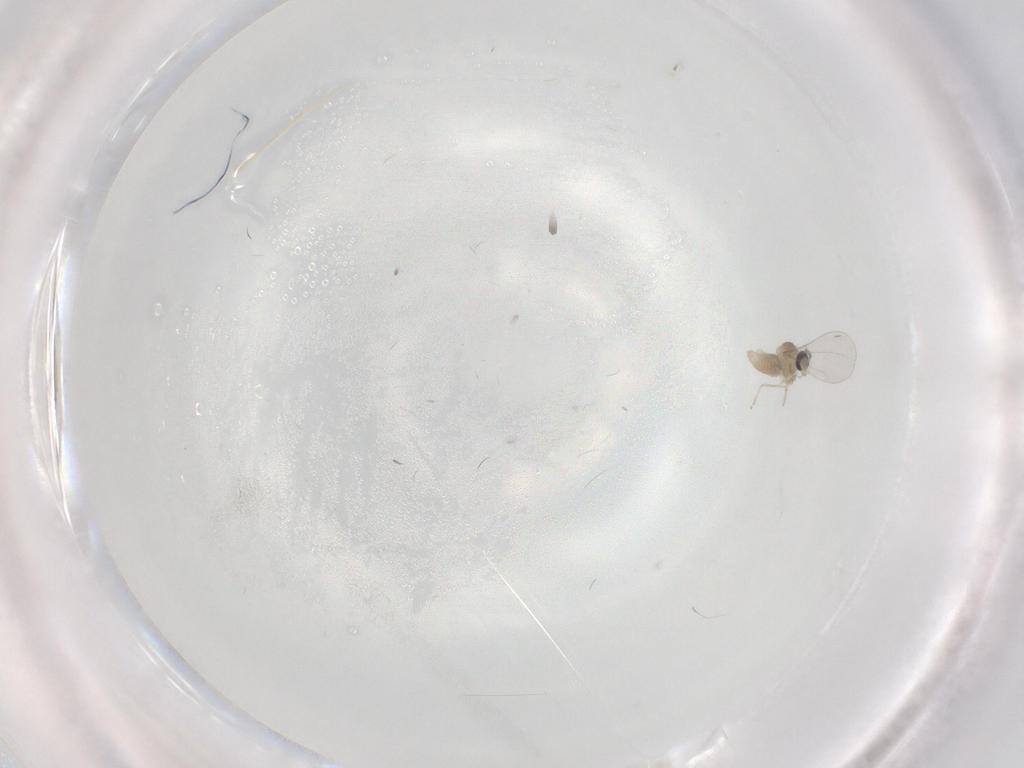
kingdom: Animalia
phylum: Arthropoda
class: Insecta
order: Diptera
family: Cecidomyiidae
